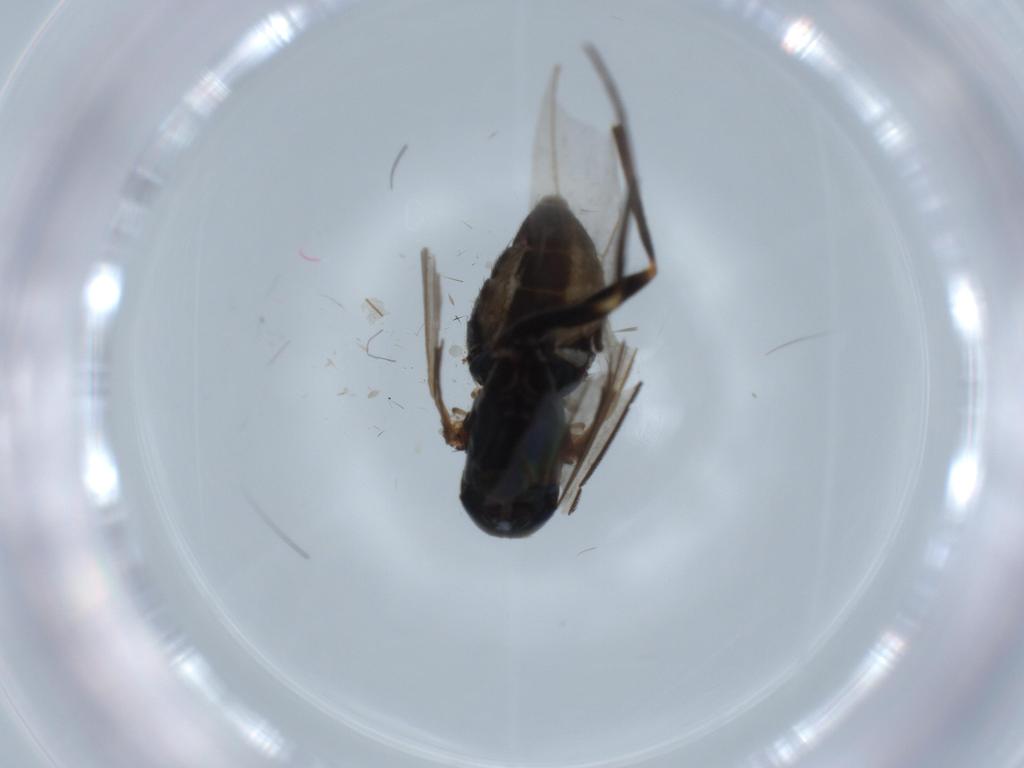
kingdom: Animalia
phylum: Arthropoda
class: Insecta
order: Diptera
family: Dolichopodidae
